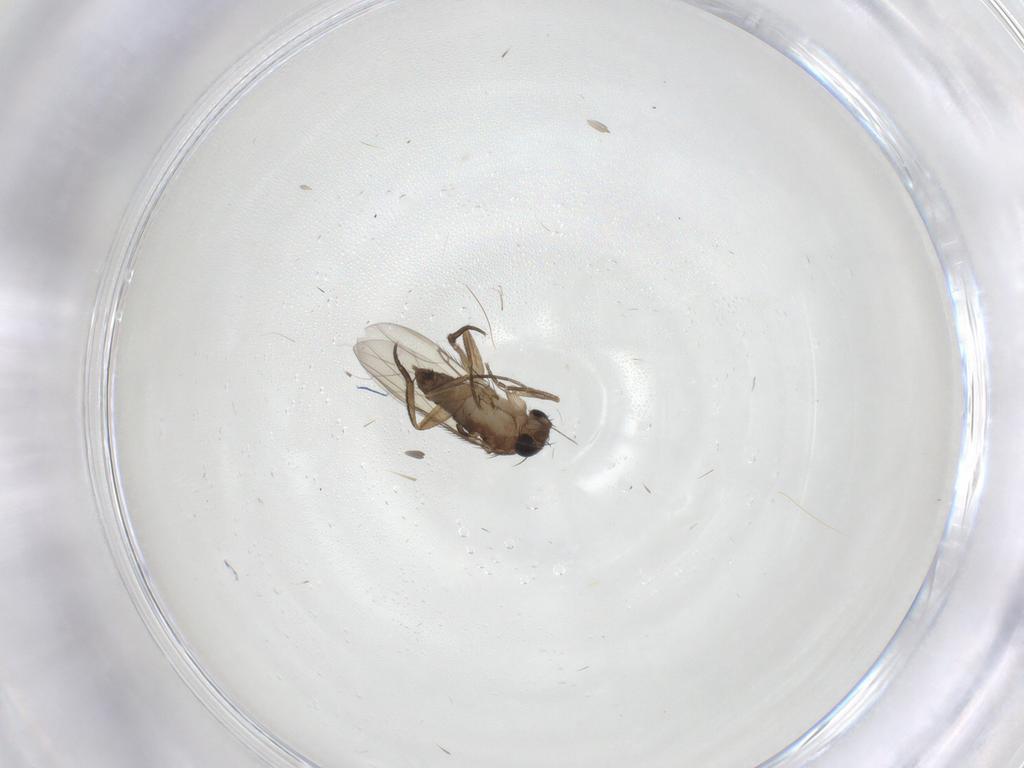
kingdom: Animalia
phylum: Arthropoda
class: Insecta
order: Diptera
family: Phoridae
